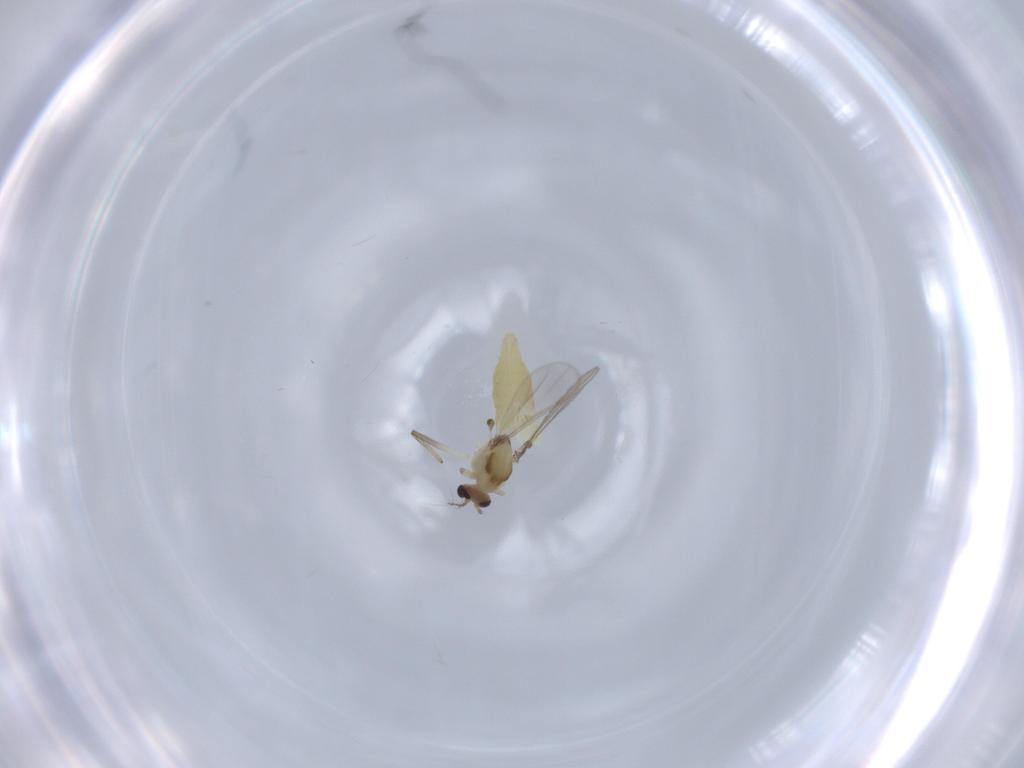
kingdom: Animalia
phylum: Arthropoda
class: Insecta
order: Diptera
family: Chironomidae
